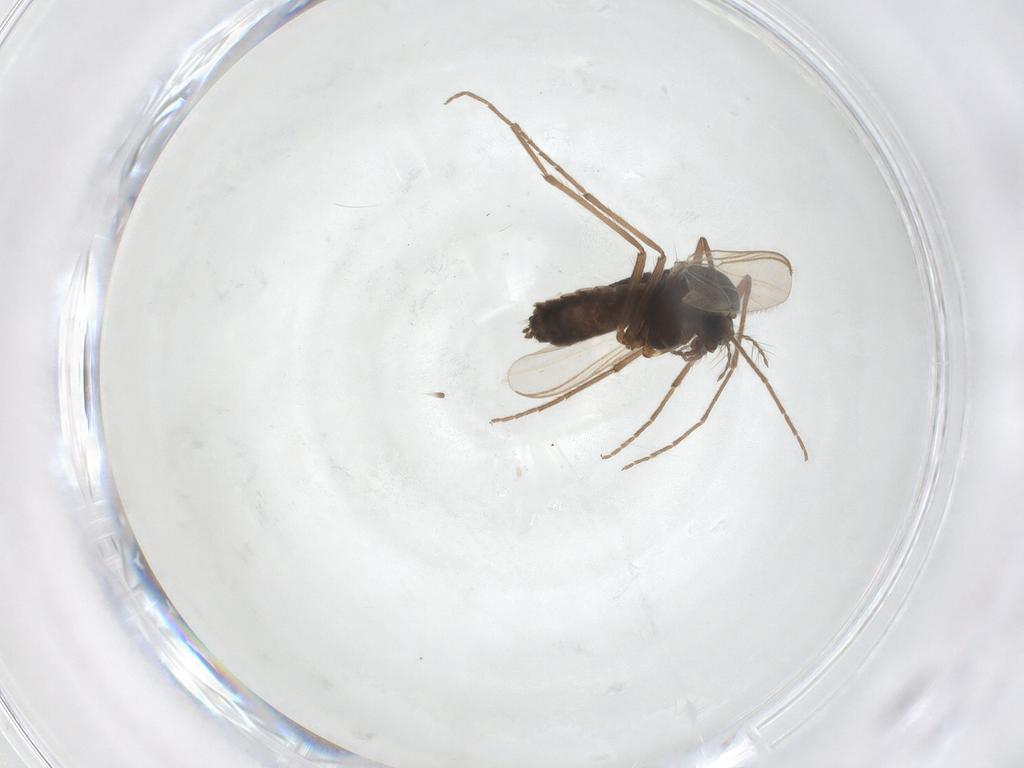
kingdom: Animalia
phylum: Arthropoda
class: Insecta
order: Diptera
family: Chironomidae
